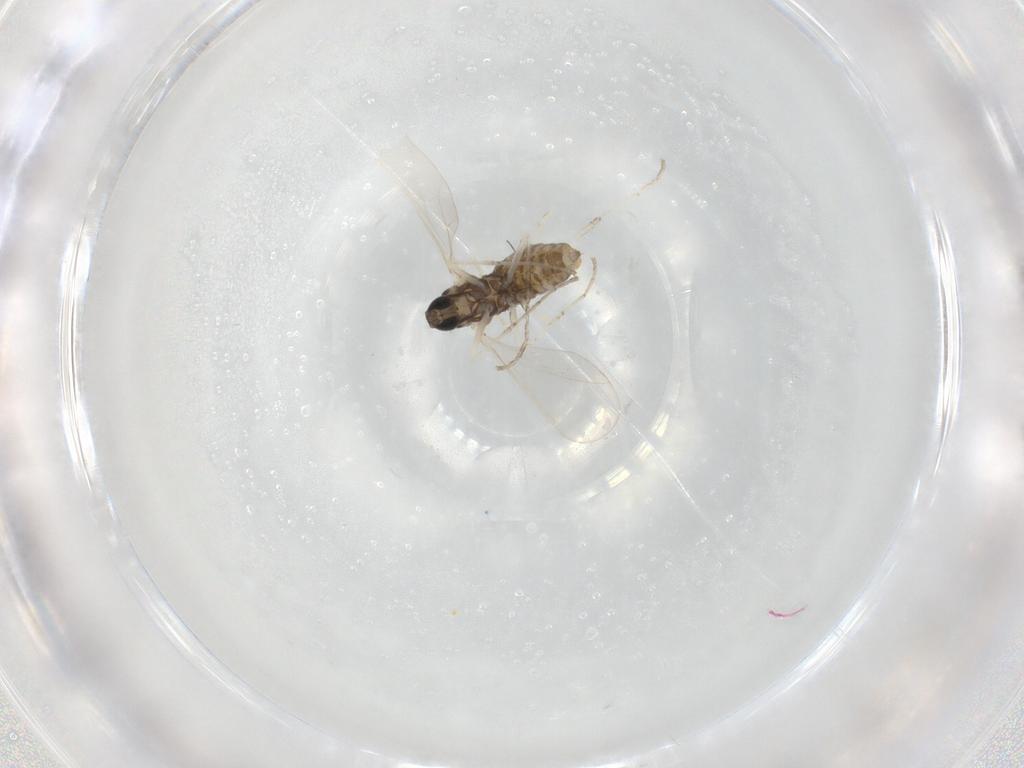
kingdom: Animalia
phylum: Arthropoda
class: Insecta
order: Diptera
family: Cecidomyiidae
